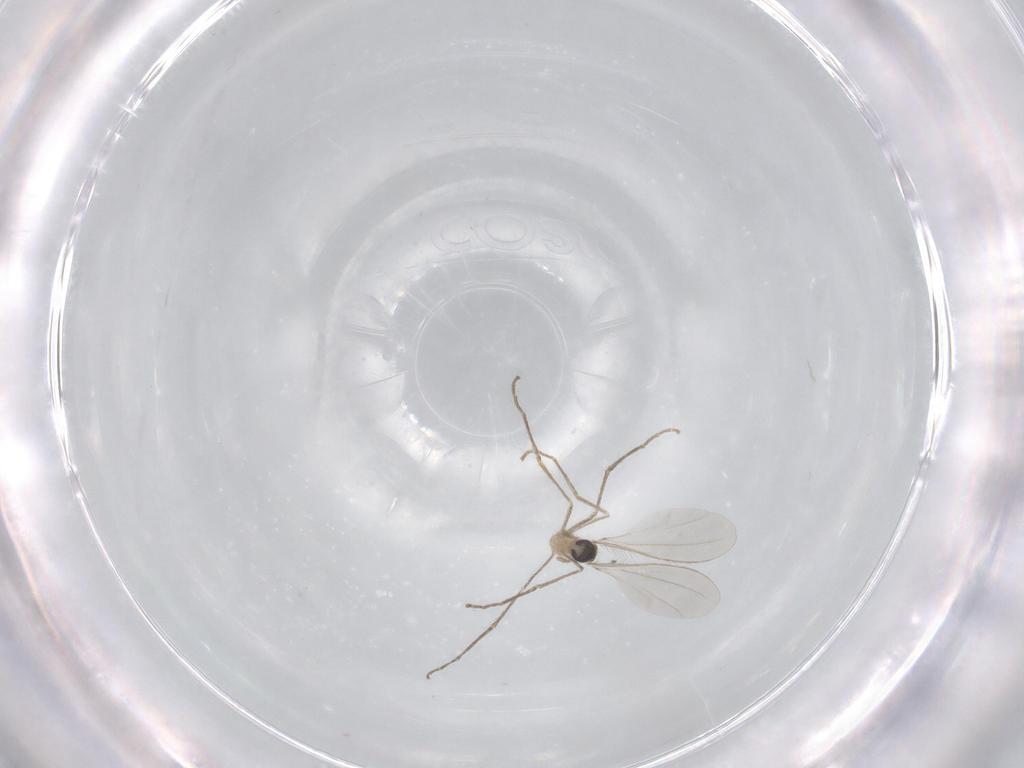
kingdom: Animalia
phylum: Arthropoda
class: Insecta
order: Diptera
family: Cecidomyiidae
